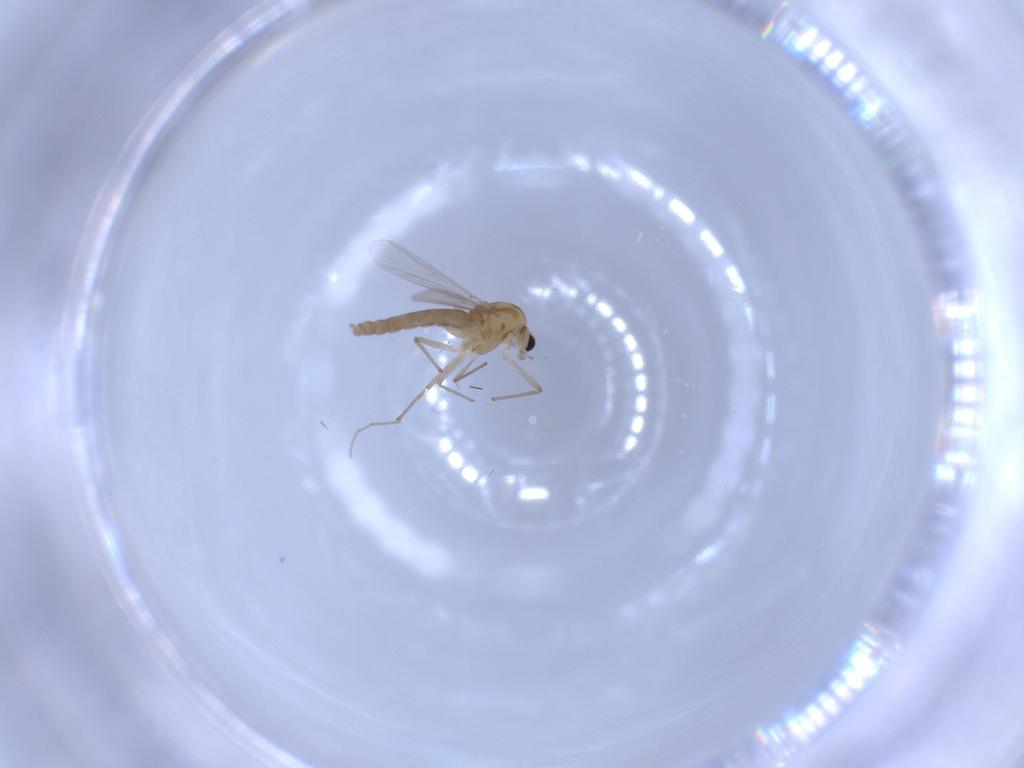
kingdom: Animalia
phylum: Arthropoda
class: Insecta
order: Diptera
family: Chironomidae
